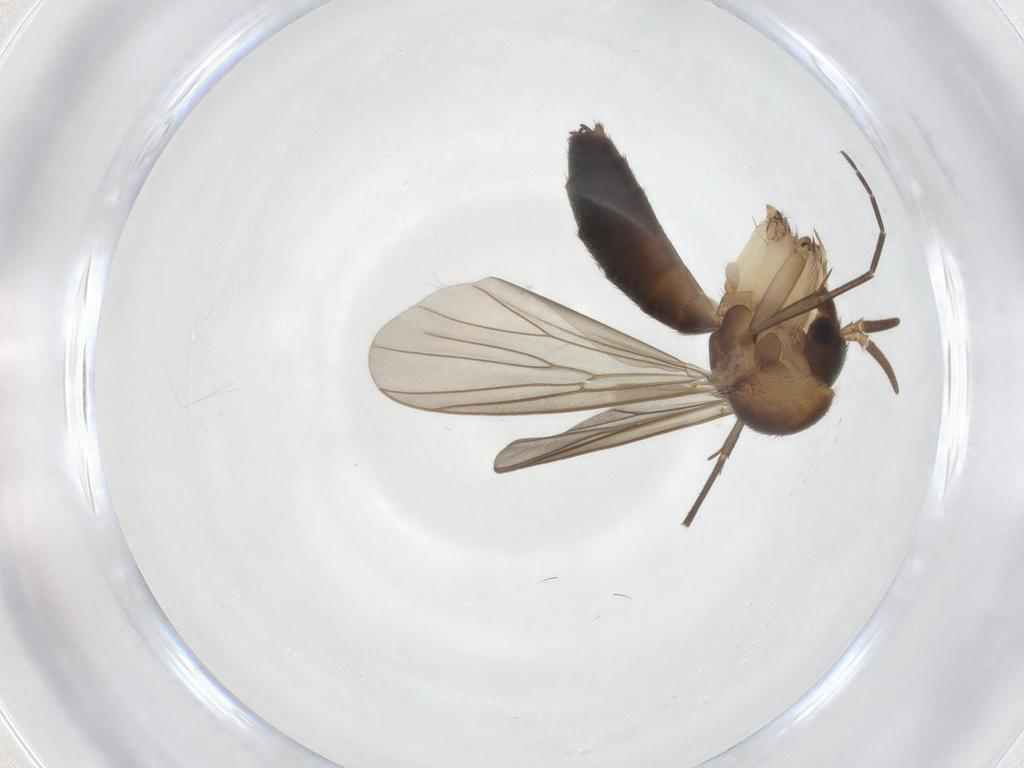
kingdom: Animalia
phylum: Arthropoda
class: Insecta
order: Diptera
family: Mycetophilidae
